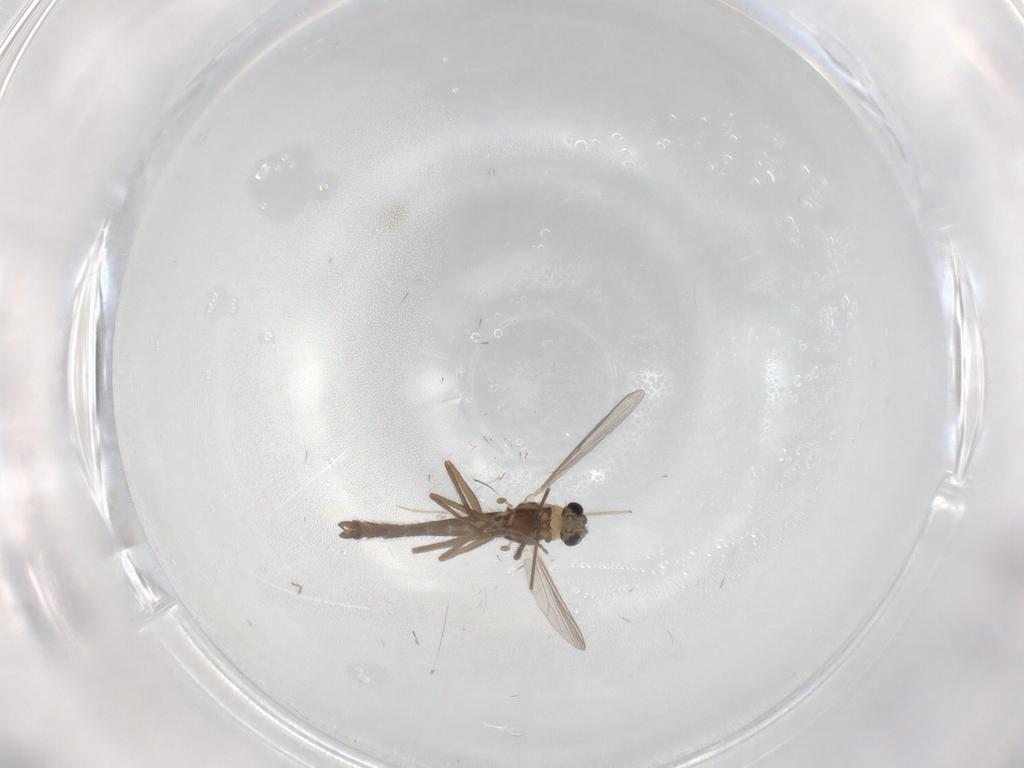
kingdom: Animalia
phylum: Arthropoda
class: Insecta
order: Diptera
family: Chironomidae
